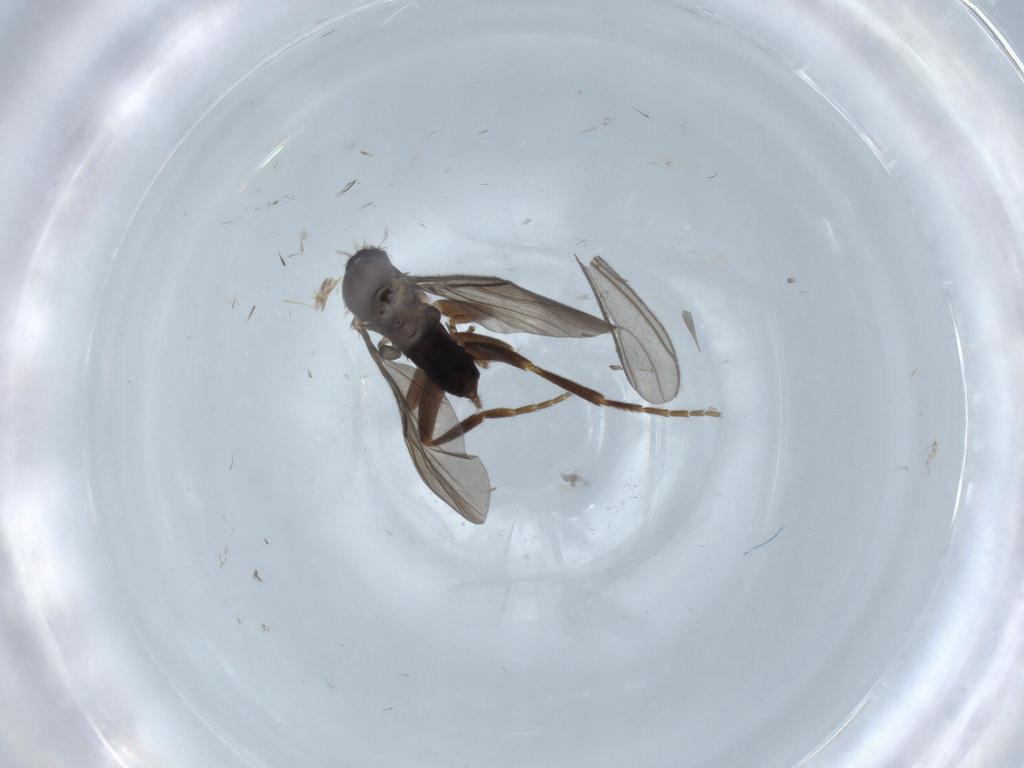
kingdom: Animalia
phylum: Arthropoda
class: Insecta
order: Diptera
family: Phoridae
